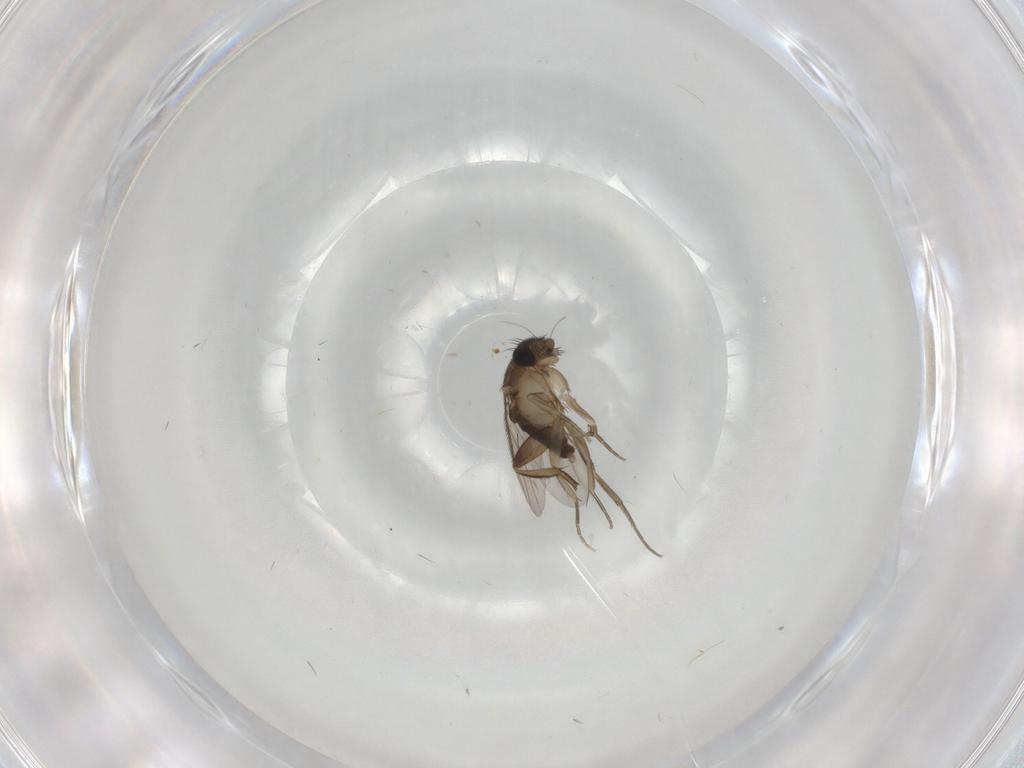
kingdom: Animalia
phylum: Arthropoda
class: Insecta
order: Diptera
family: Phoridae
